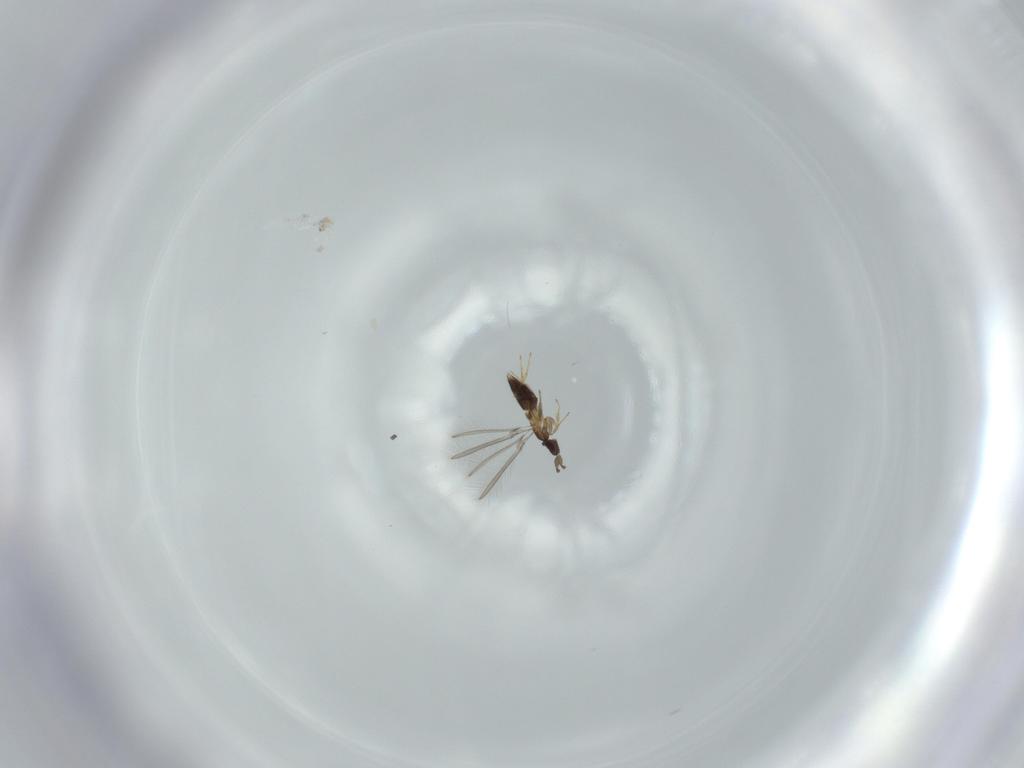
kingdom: Animalia
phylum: Arthropoda
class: Insecta
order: Hymenoptera
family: Mymaridae
